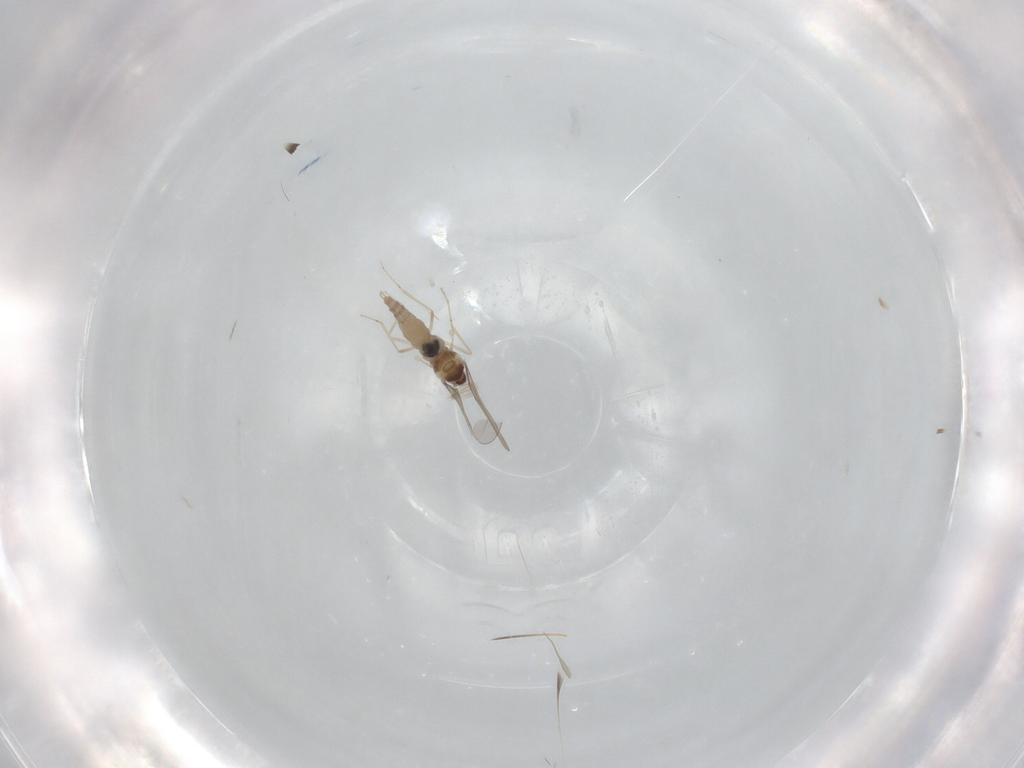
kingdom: Animalia
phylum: Arthropoda
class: Insecta
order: Diptera
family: Cecidomyiidae
